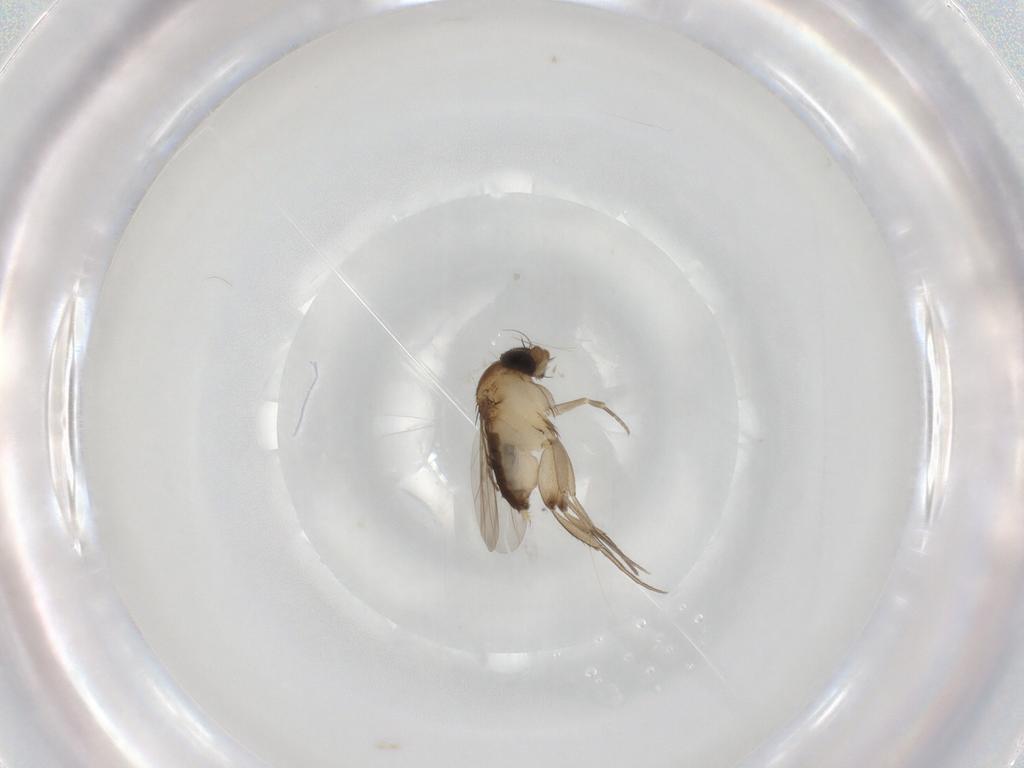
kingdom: Animalia
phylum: Arthropoda
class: Insecta
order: Diptera
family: Phoridae
